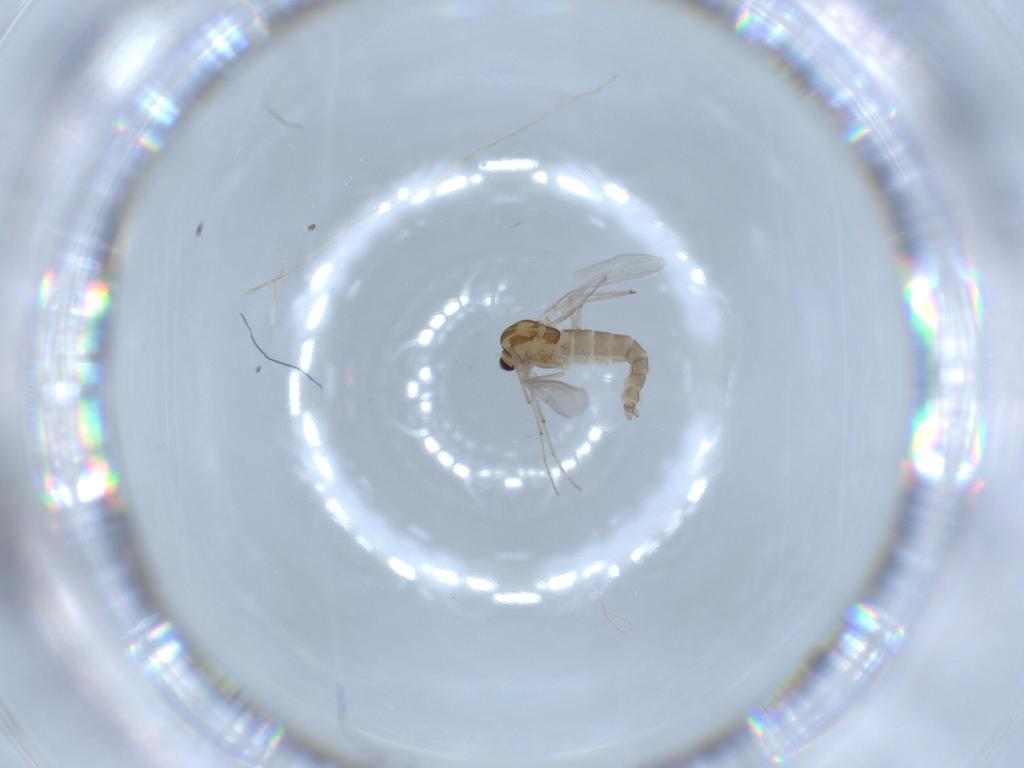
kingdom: Animalia
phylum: Arthropoda
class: Insecta
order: Diptera
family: Chironomidae
